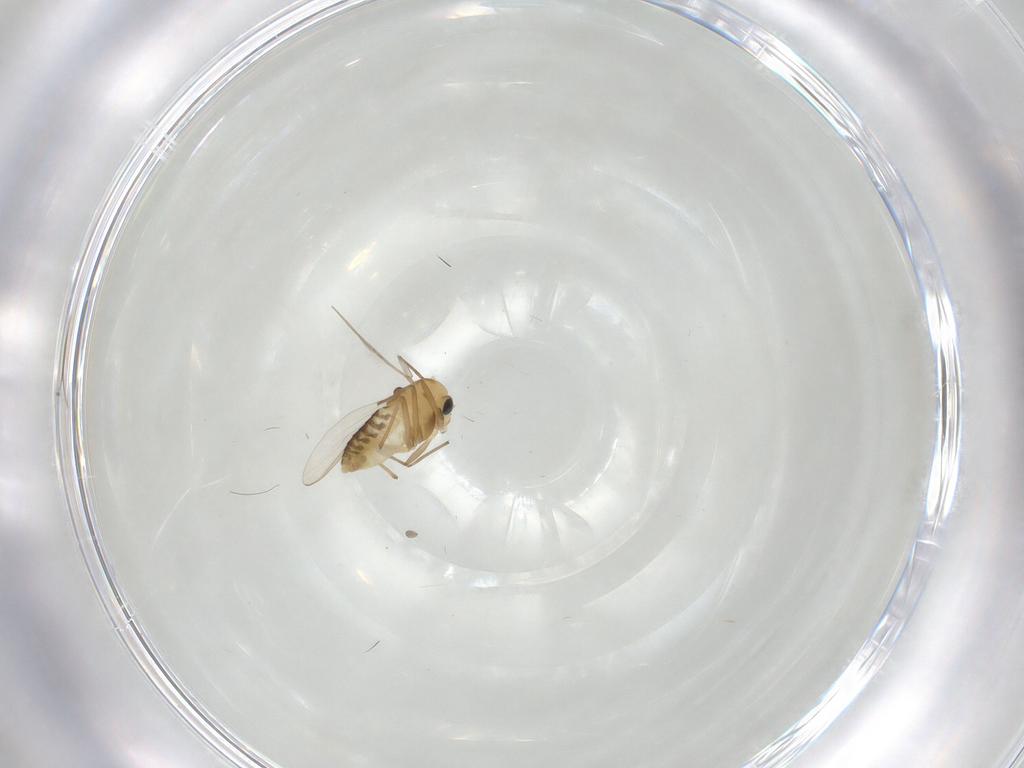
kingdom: Animalia
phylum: Arthropoda
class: Insecta
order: Diptera
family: Chironomidae
